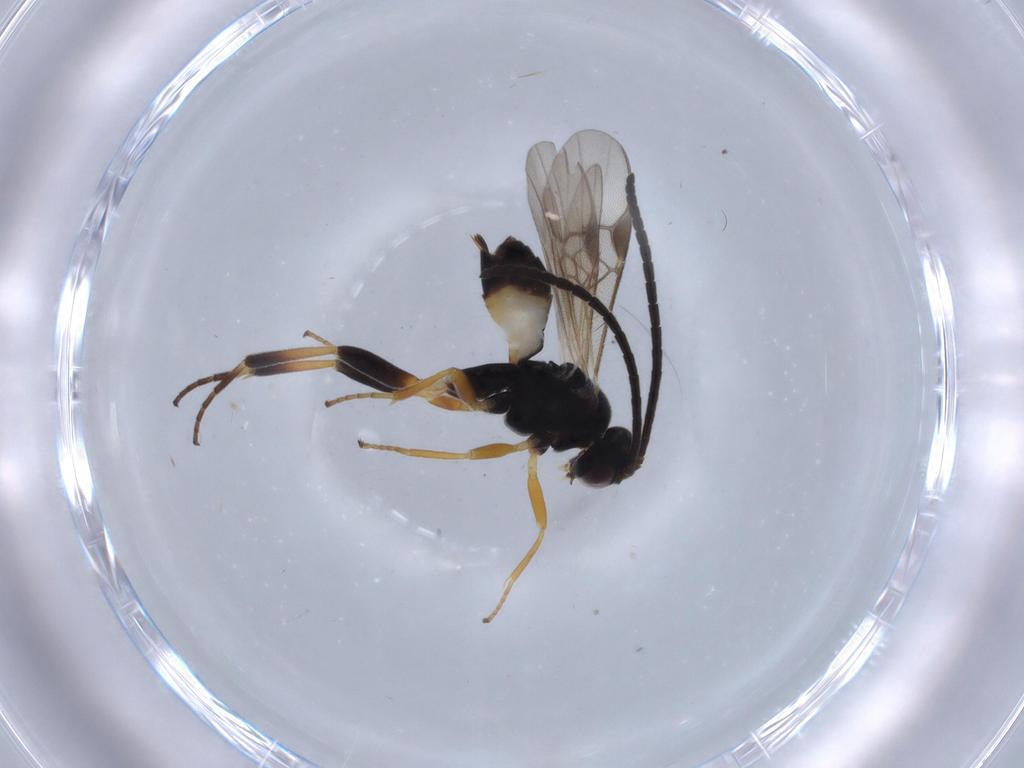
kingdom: Animalia
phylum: Arthropoda
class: Insecta
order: Hymenoptera
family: Braconidae
